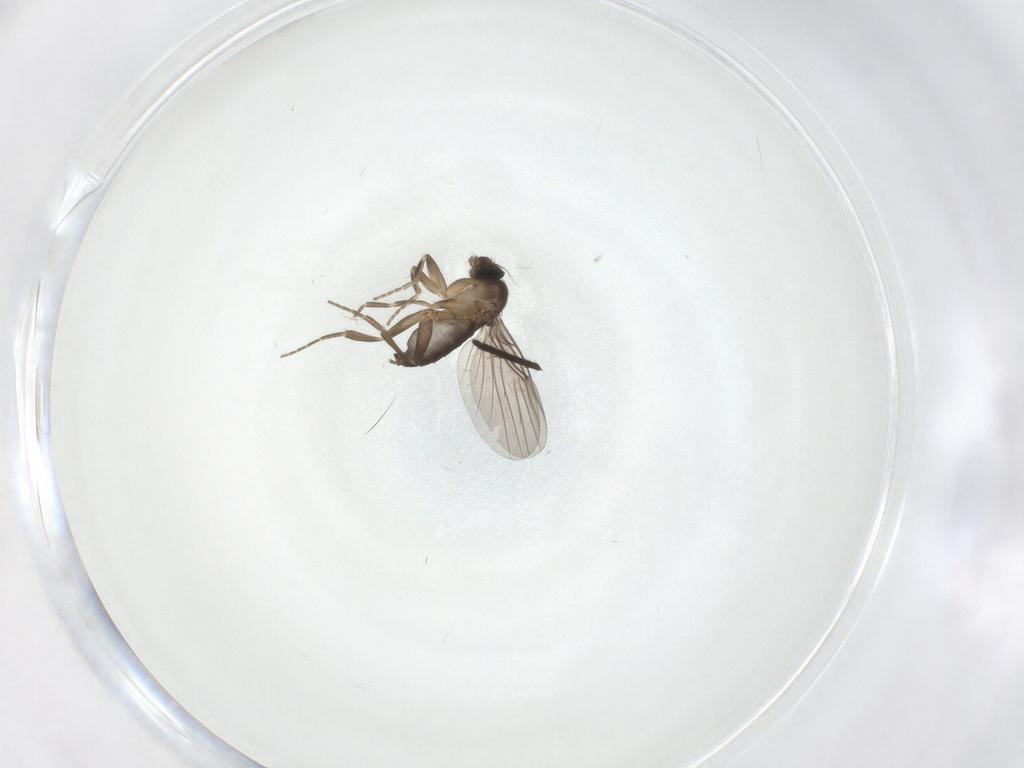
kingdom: Animalia
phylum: Arthropoda
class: Insecta
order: Diptera
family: Phoridae
